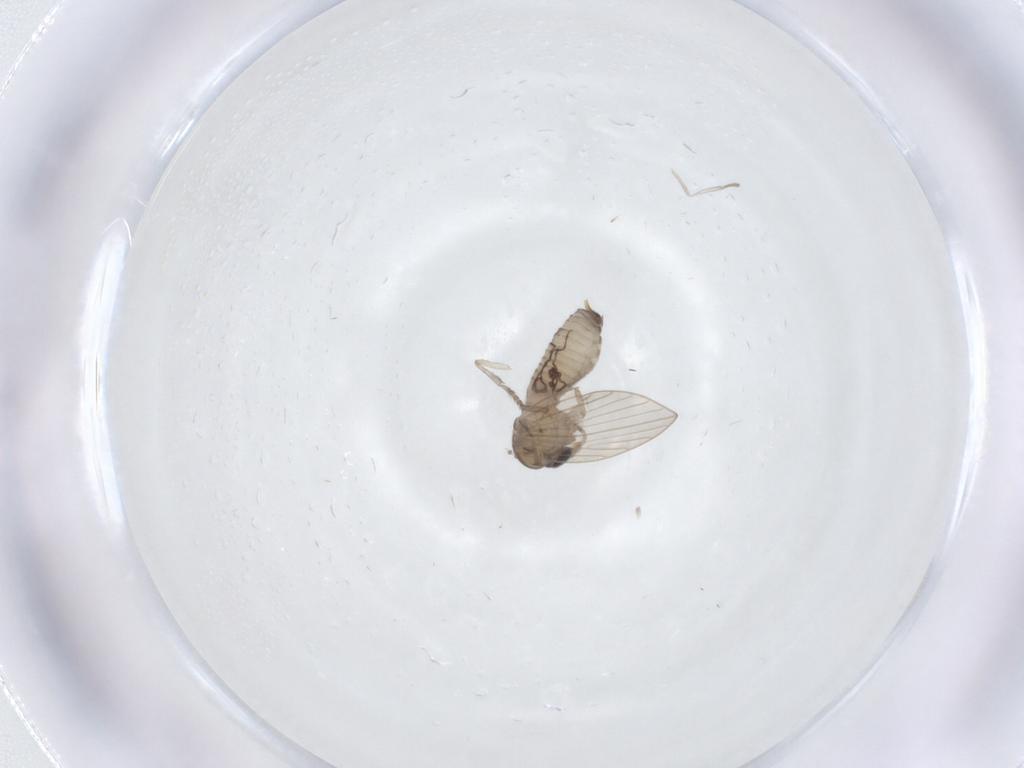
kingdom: Animalia
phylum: Arthropoda
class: Insecta
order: Diptera
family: Psychodidae
